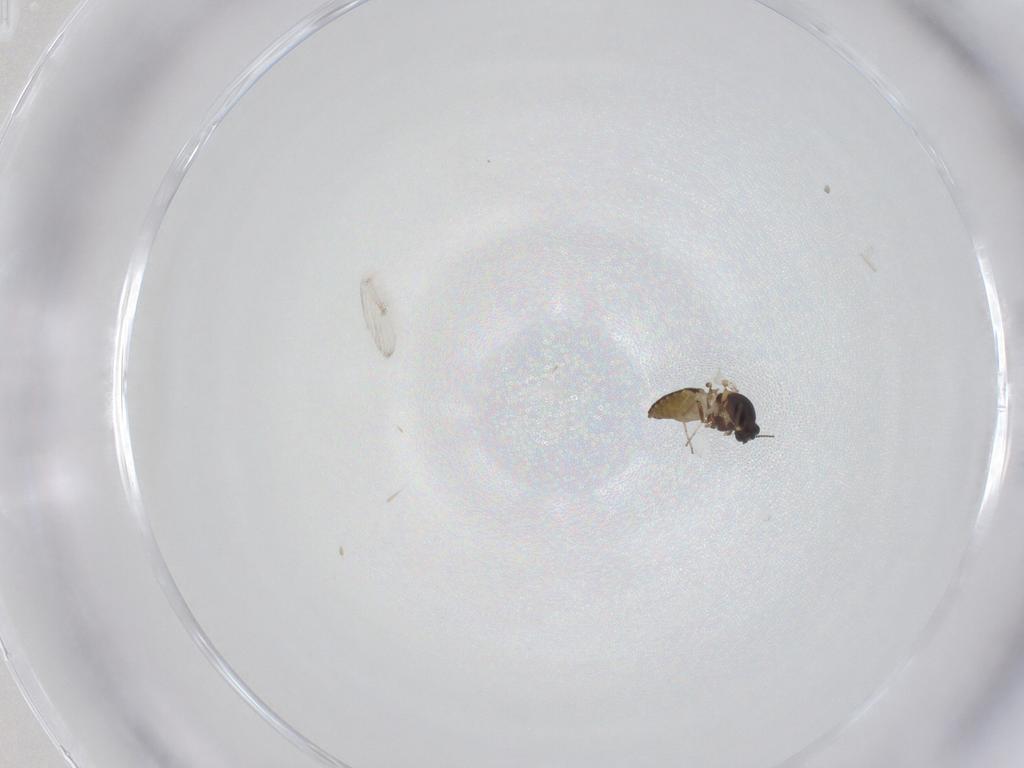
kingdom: Animalia
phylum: Arthropoda
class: Insecta
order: Diptera
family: Ceratopogonidae
